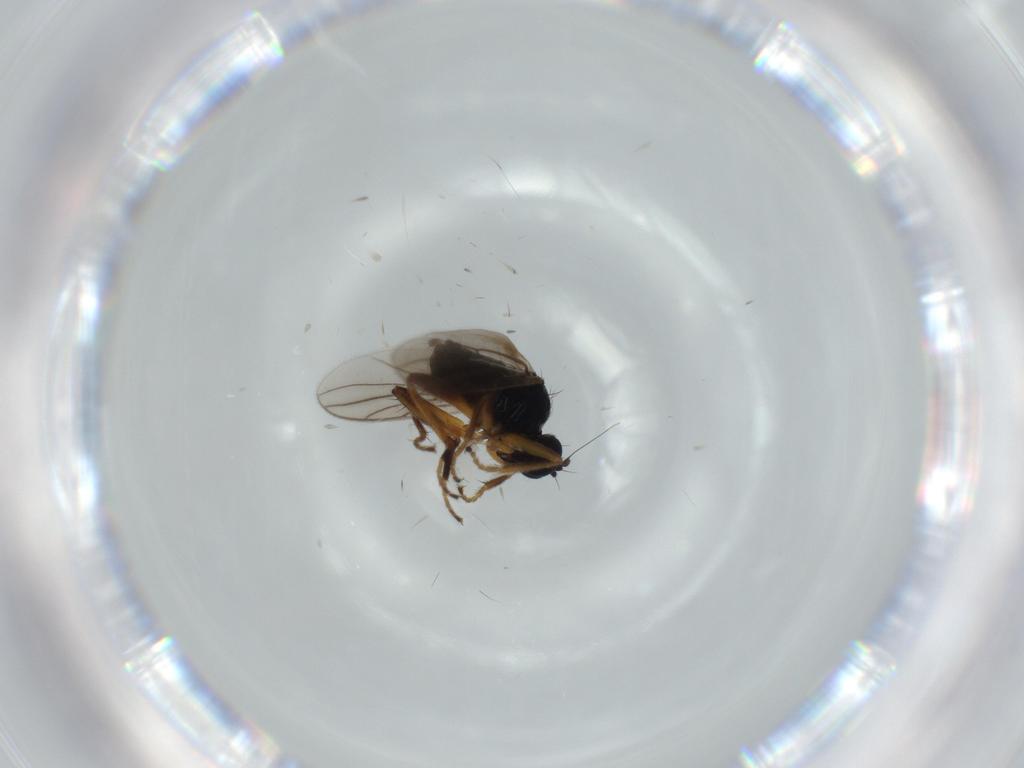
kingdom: Animalia
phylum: Arthropoda
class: Insecta
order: Diptera
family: Hybotidae
